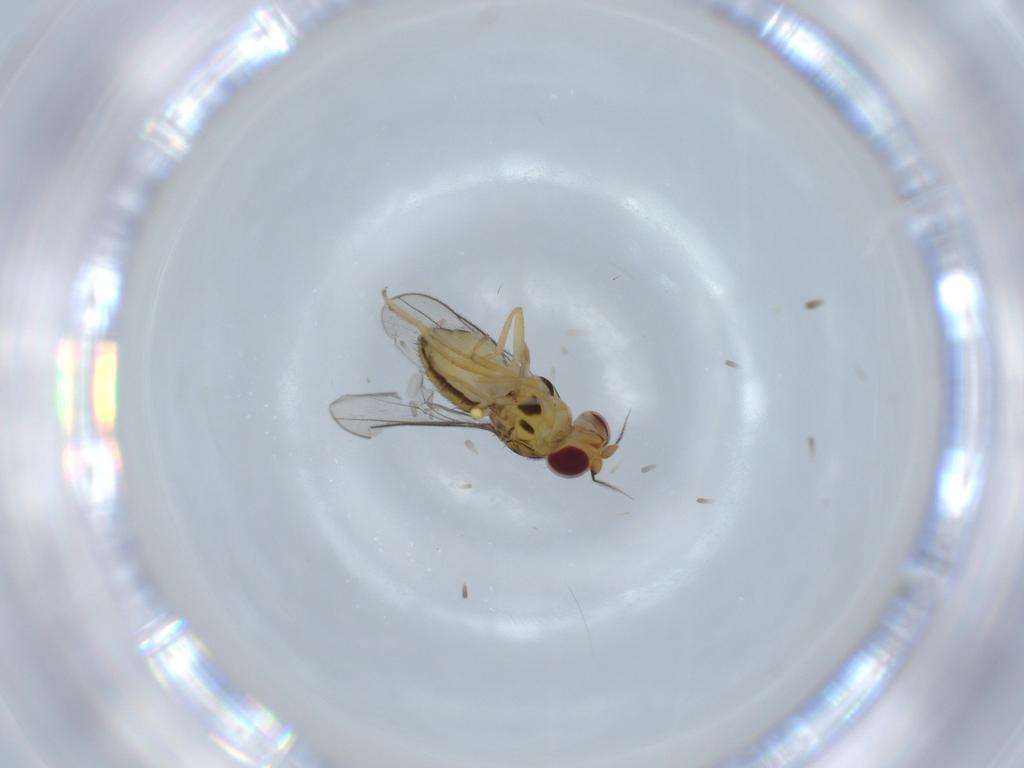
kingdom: Animalia
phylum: Arthropoda
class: Insecta
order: Diptera
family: Chloropidae
